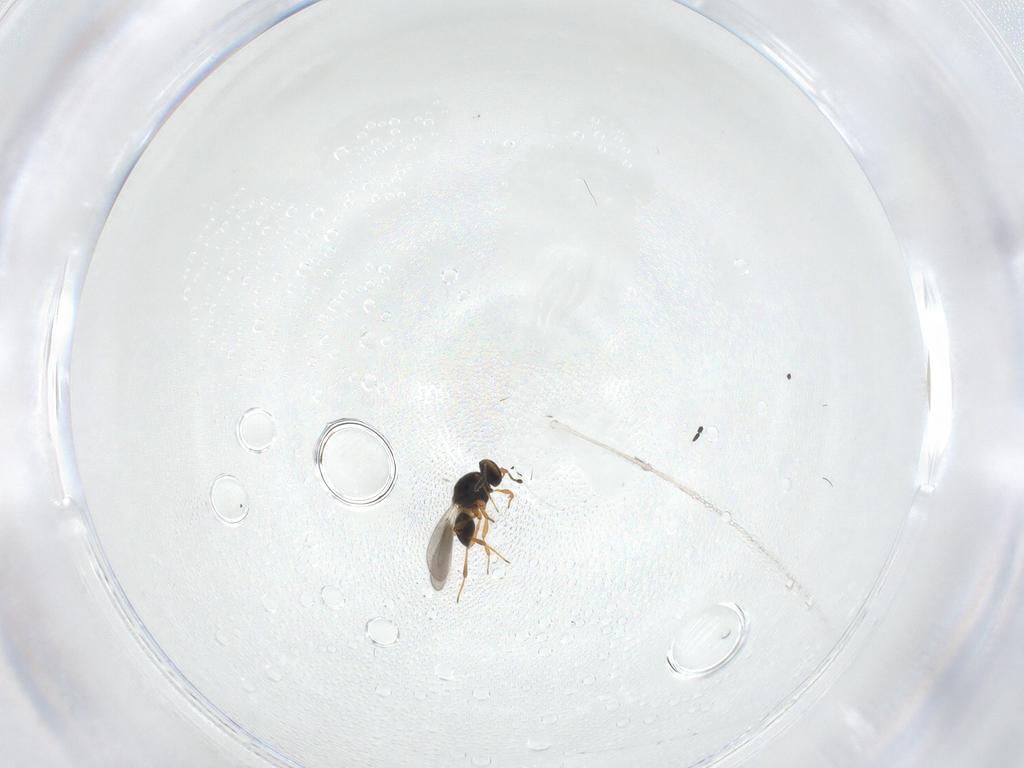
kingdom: Animalia
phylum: Arthropoda
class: Insecta
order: Hymenoptera
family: Platygastridae
